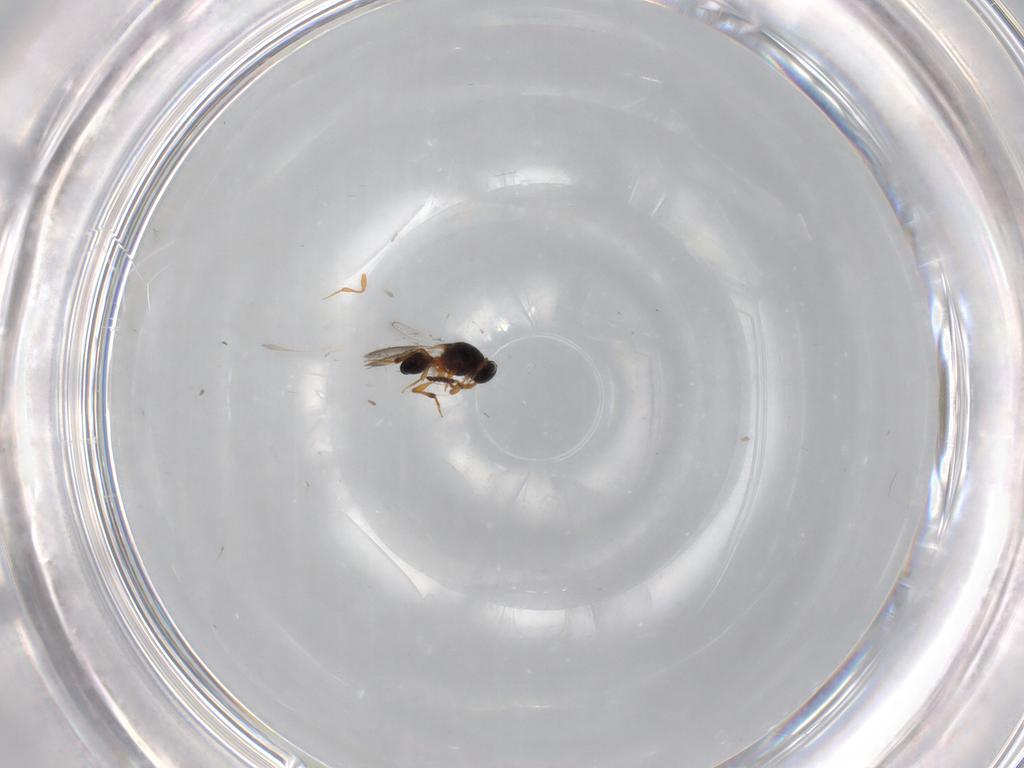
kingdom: Animalia
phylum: Arthropoda
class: Insecta
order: Hymenoptera
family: Platygastridae
